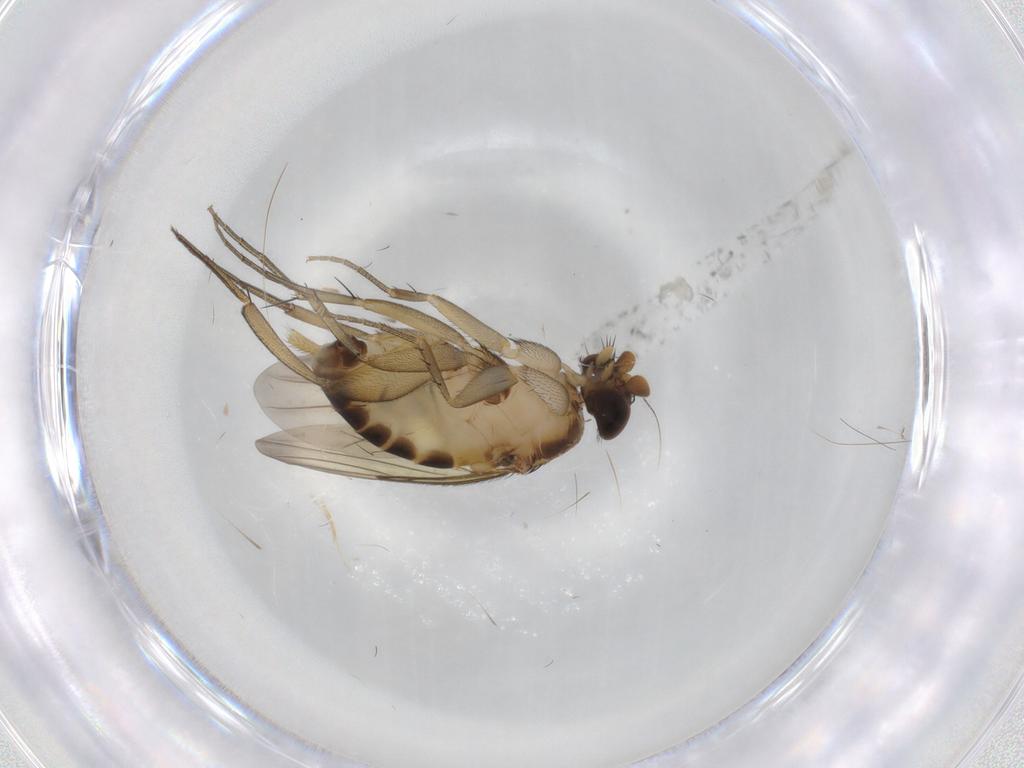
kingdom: Animalia
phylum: Arthropoda
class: Insecta
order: Diptera
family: Phoridae
